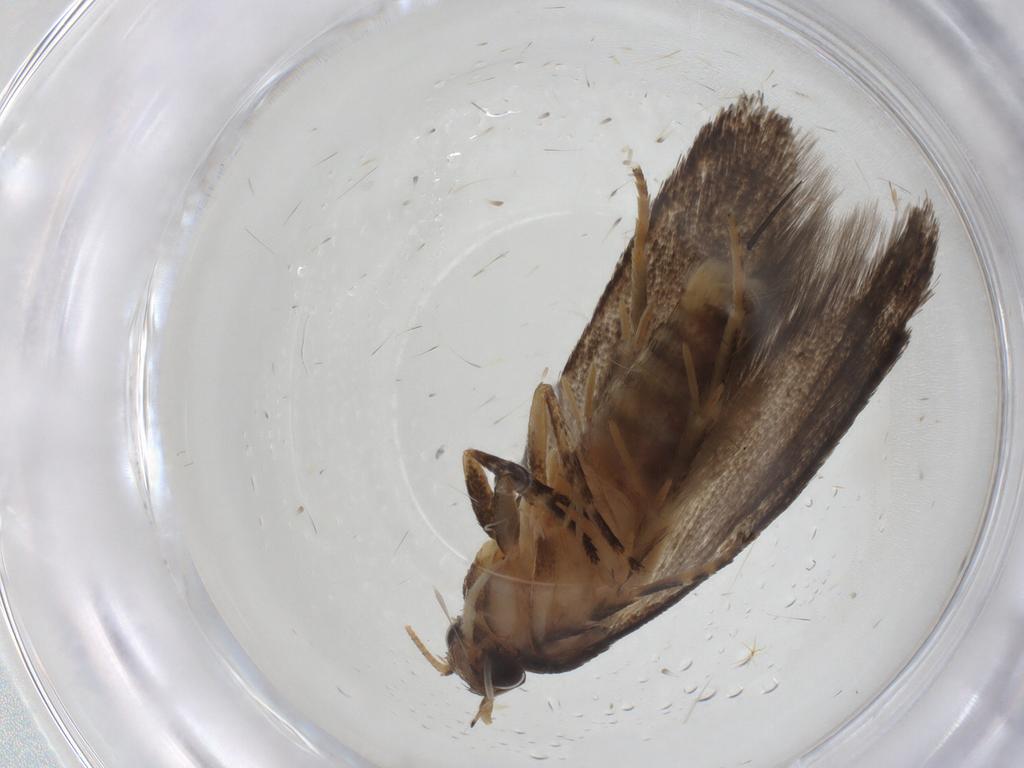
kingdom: Animalia
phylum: Arthropoda
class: Insecta
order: Lepidoptera
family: Oecophoridae
